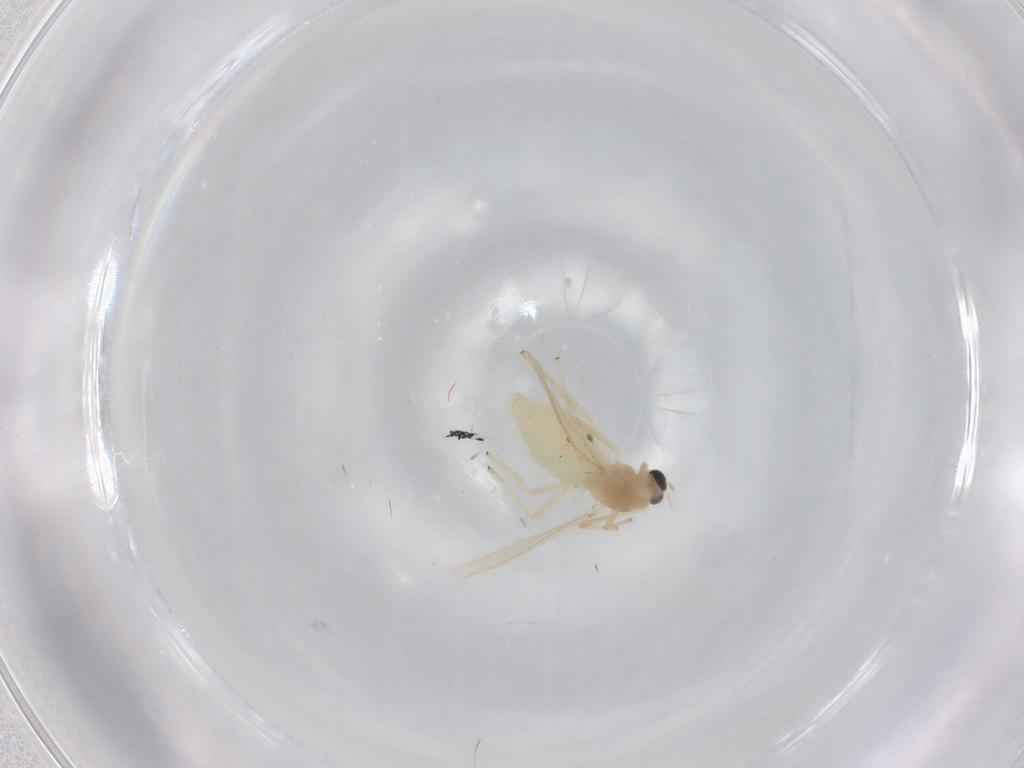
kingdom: Animalia
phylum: Arthropoda
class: Insecta
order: Diptera
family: Chironomidae
